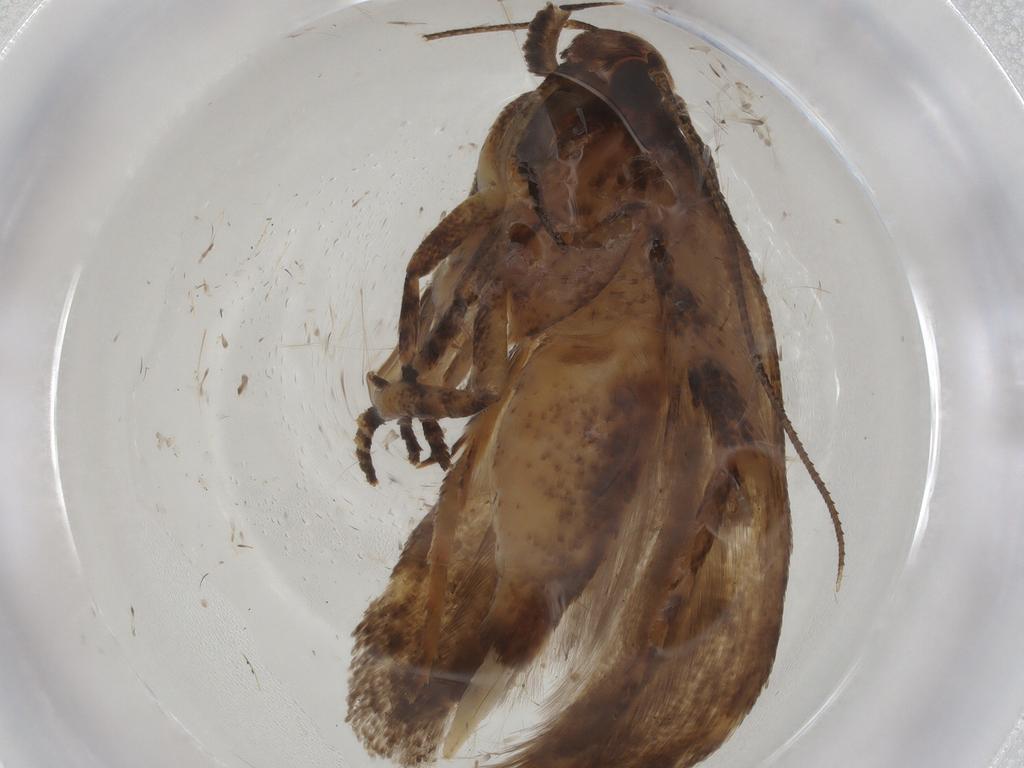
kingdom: Animalia
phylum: Arthropoda
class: Insecta
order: Lepidoptera
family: Gelechiidae
